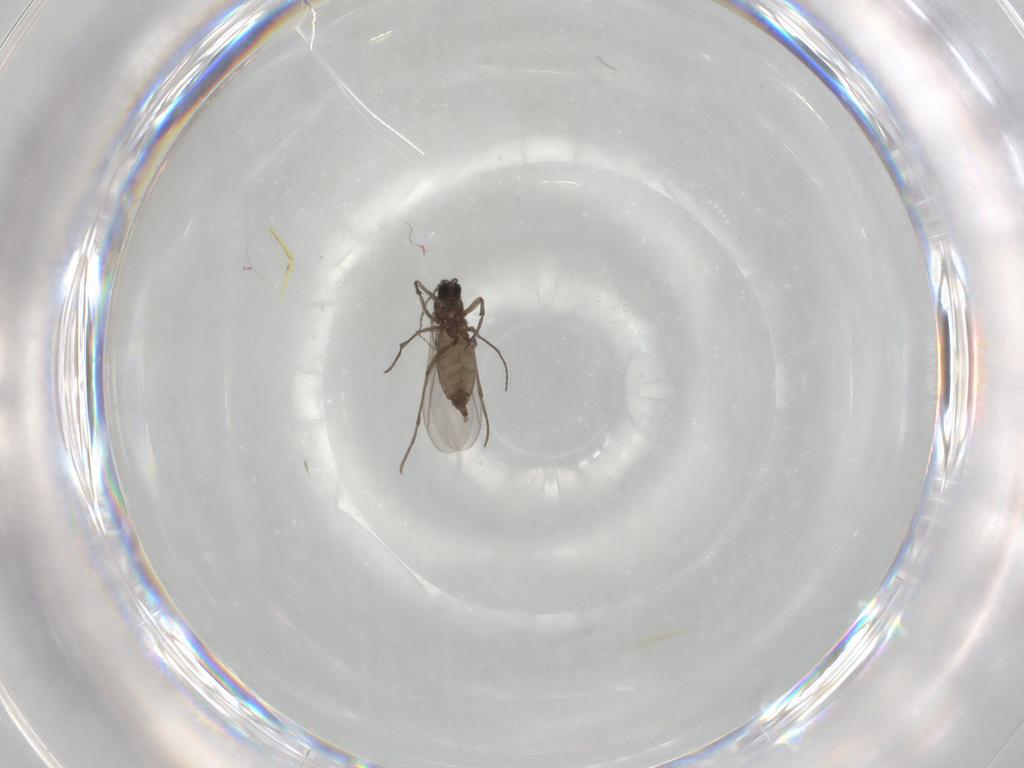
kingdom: Animalia
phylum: Arthropoda
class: Insecta
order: Diptera
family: Sciaridae
